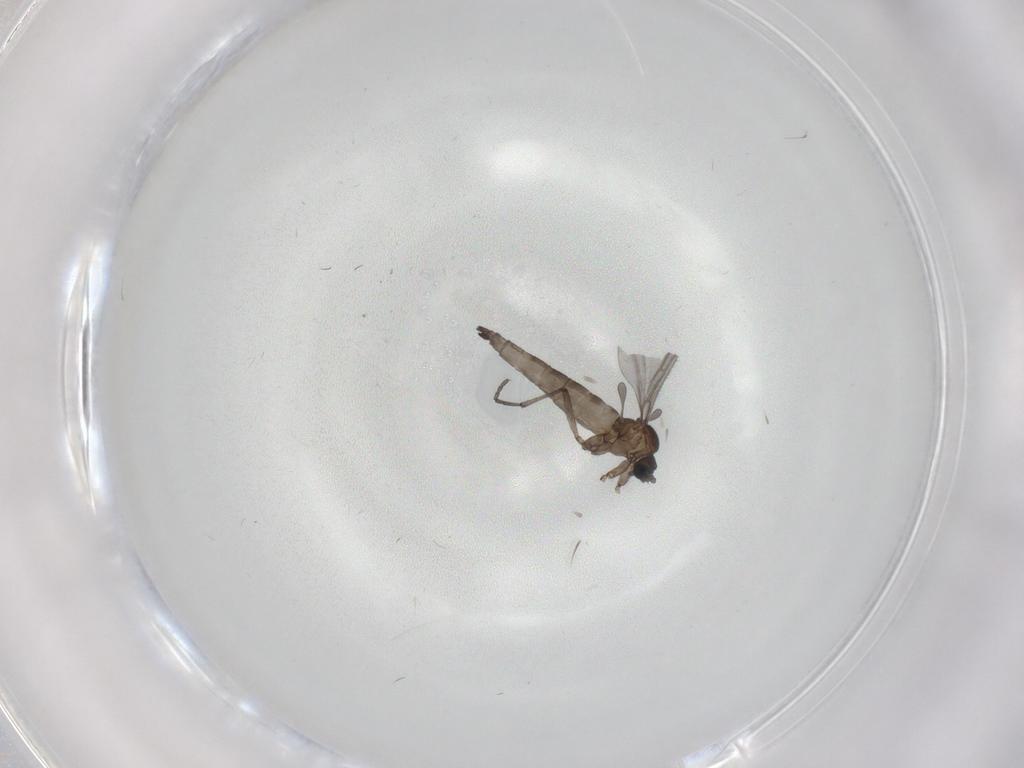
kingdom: Animalia
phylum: Arthropoda
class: Insecta
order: Diptera
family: Sciaridae
